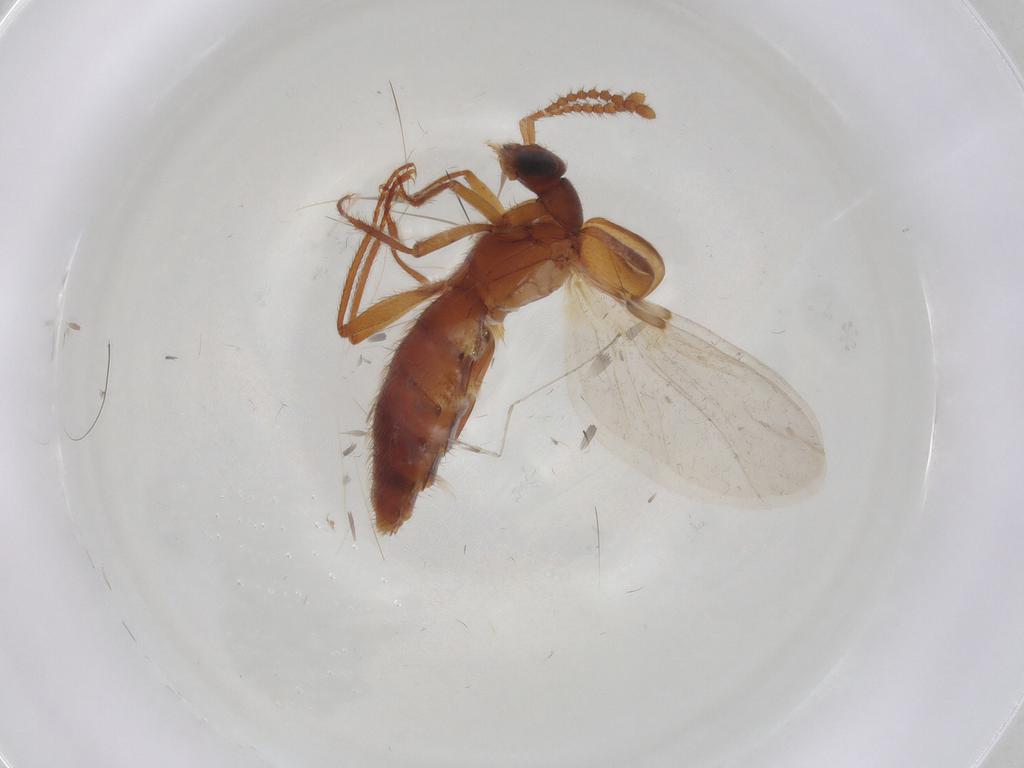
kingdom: Animalia
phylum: Arthropoda
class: Insecta
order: Coleoptera
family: Staphylinidae
